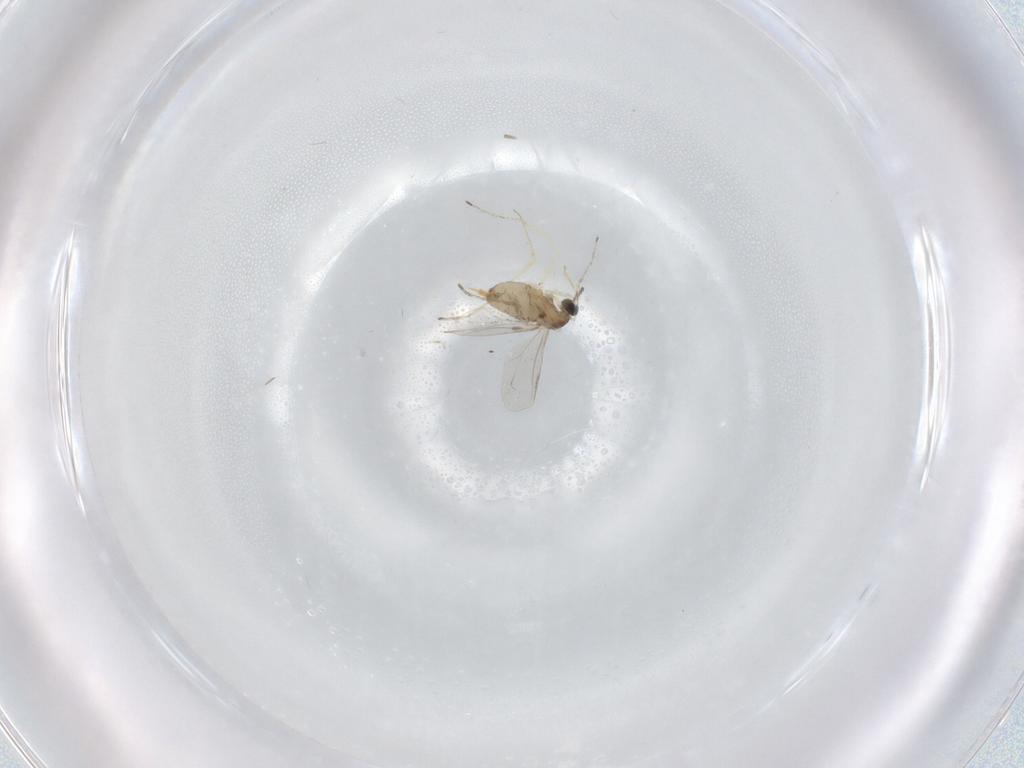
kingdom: Animalia
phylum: Arthropoda
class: Insecta
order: Diptera
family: Cecidomyiidae
